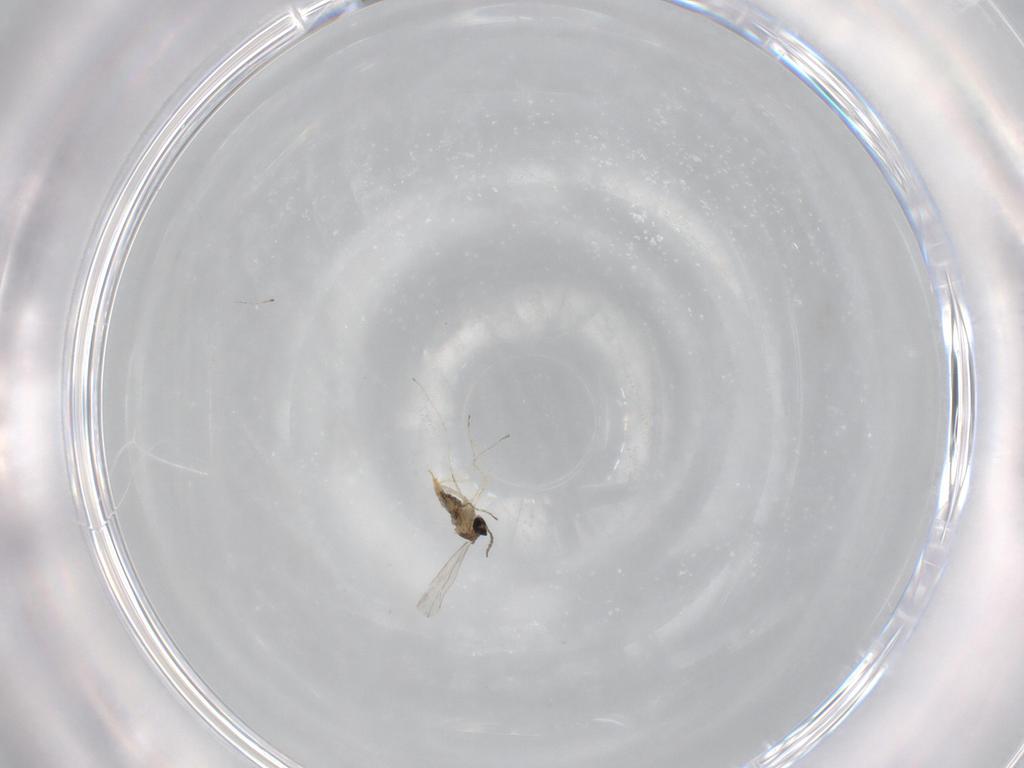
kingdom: Animalia
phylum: Arthropoda
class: Insecta
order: Diptera
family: Cecidomyiidae
